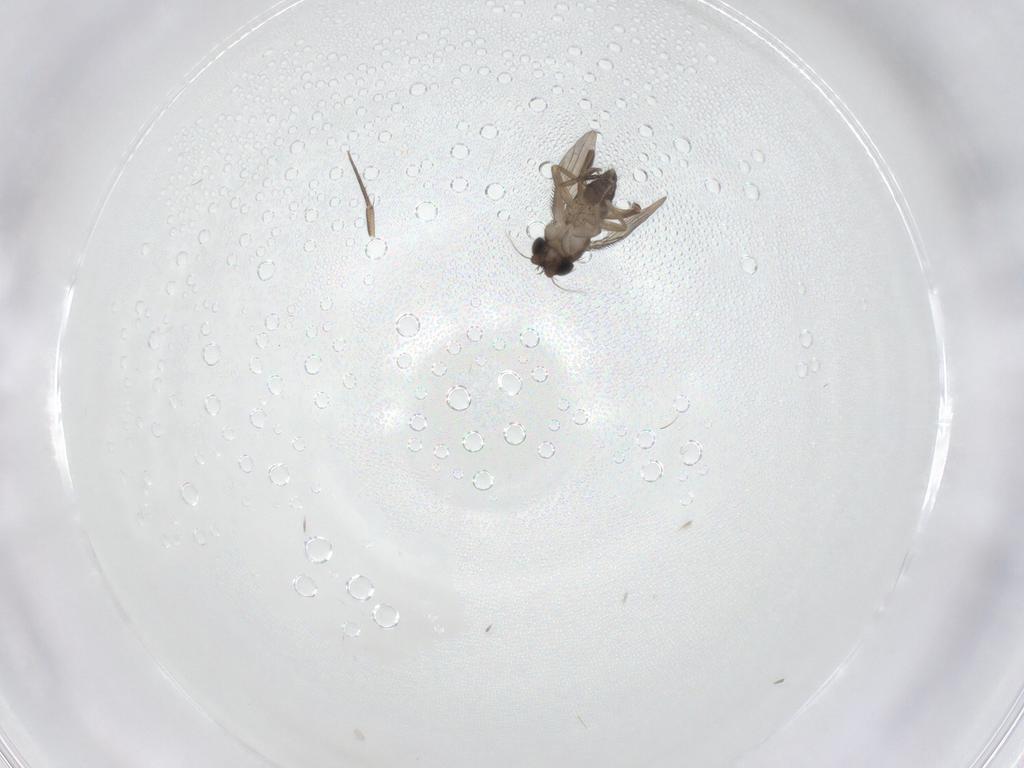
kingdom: Animalia
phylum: Arthropoda
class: Insecta
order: Diptera
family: Phoridae
